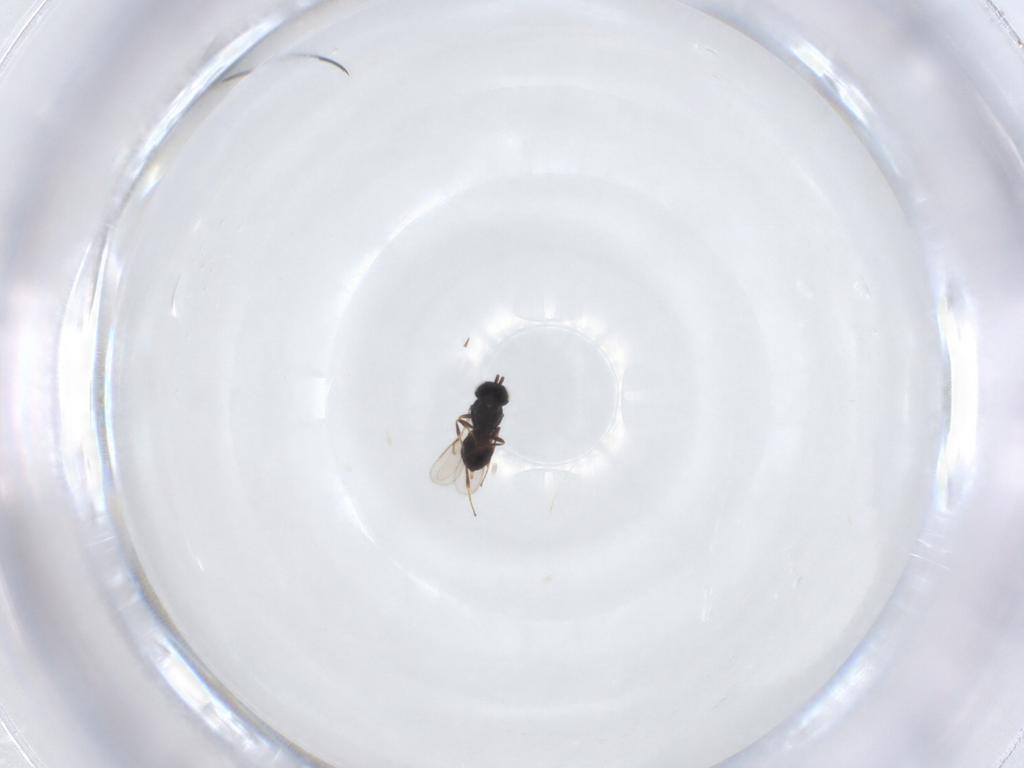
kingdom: Animalia
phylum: Arthropoda
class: Insecta
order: Hymenoptera
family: Scelionidae
